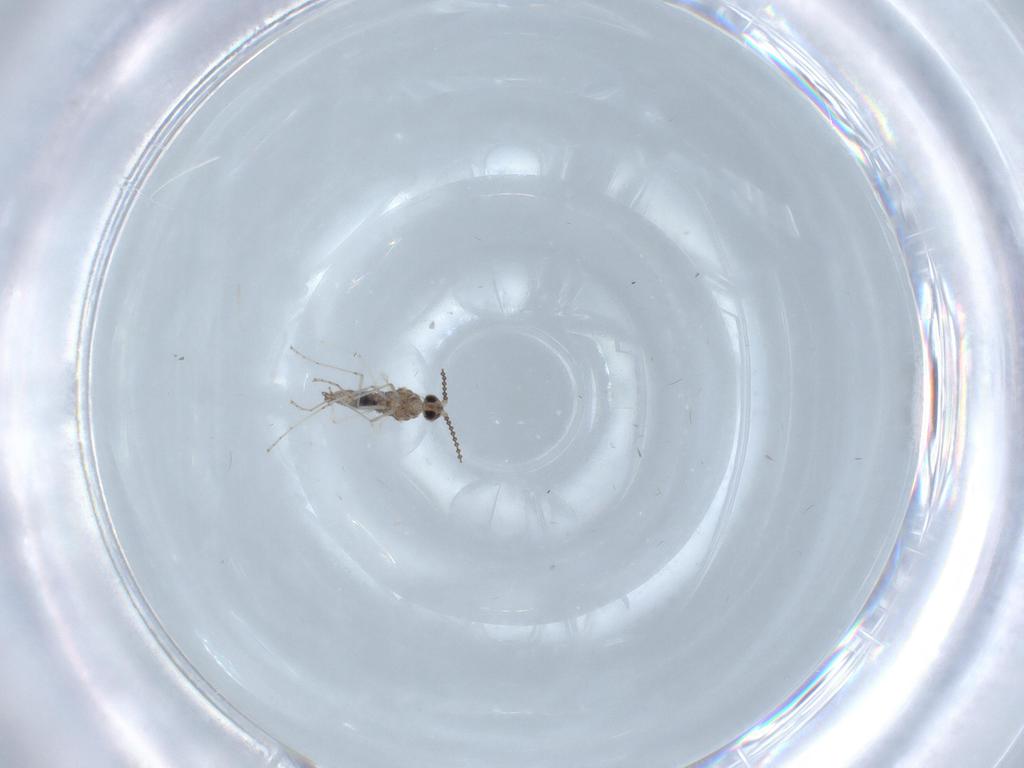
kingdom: Animalia
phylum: Arthropoda
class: Insecta
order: Diptera
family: Cecidomyiidae
